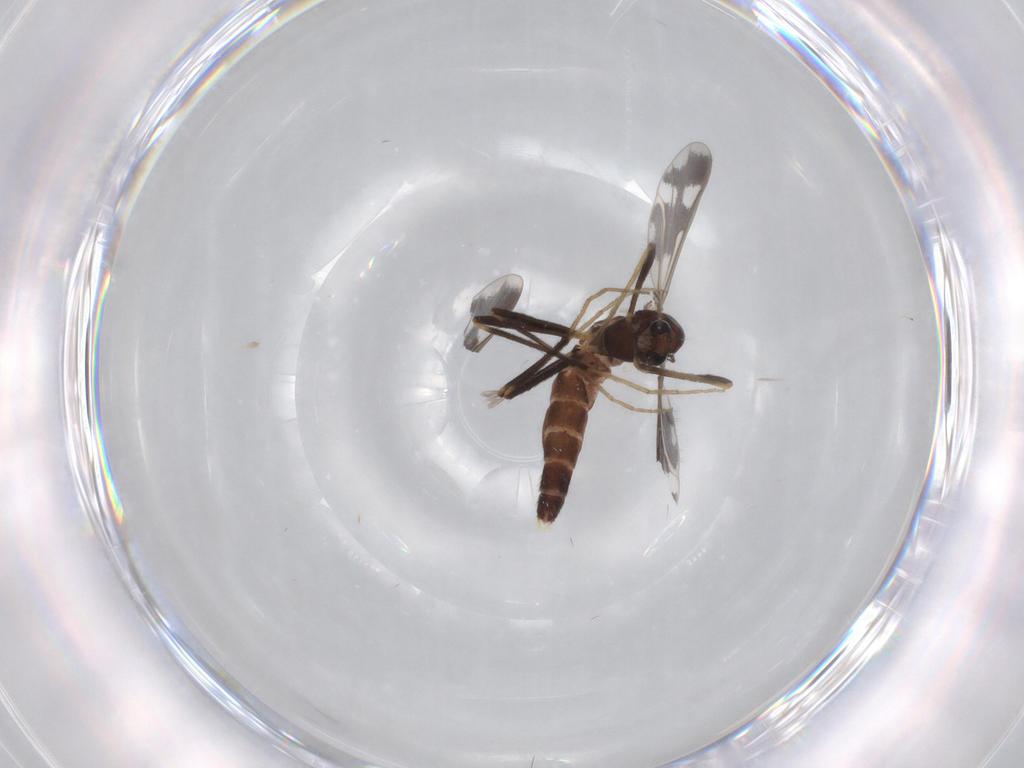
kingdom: Animalia
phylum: Arthropoda
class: Insecta
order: Diptera
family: Chironomidae
